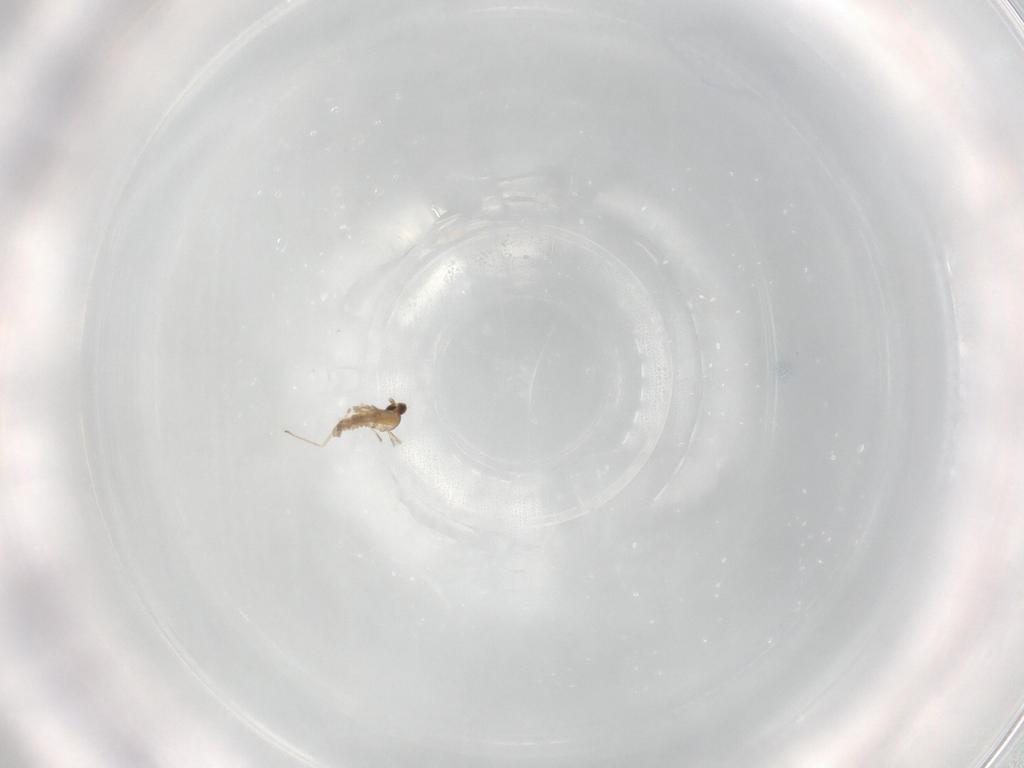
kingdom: Animalia
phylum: Arthropoda
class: Insecta
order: Diptera
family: Cecidomyiidae
